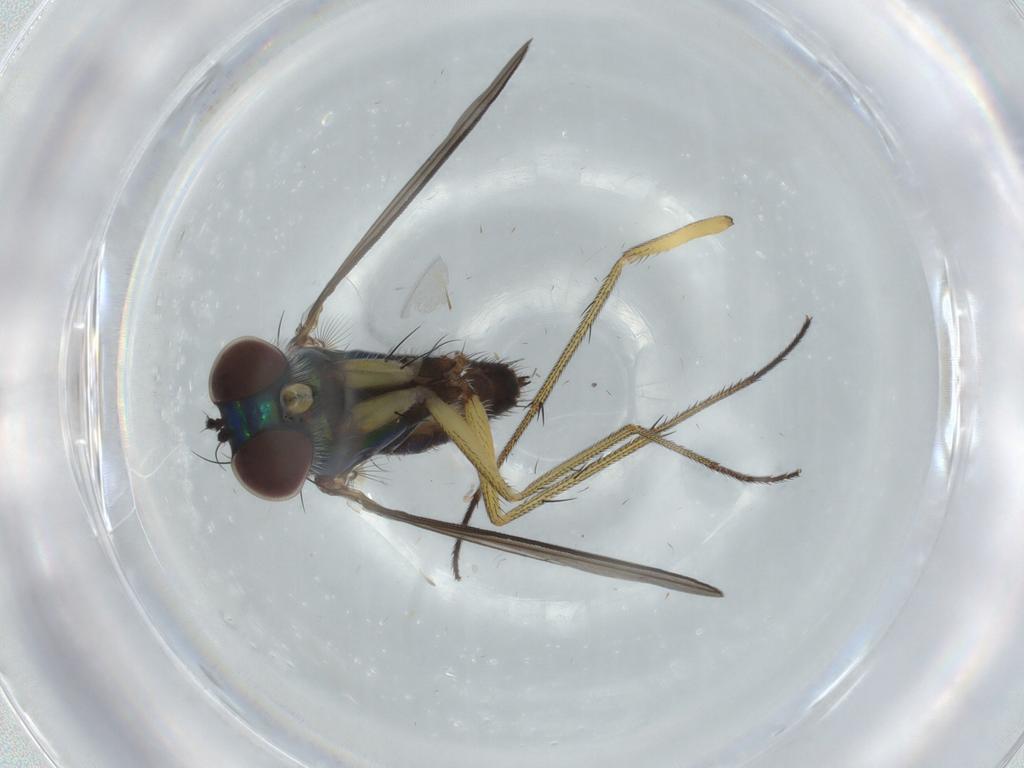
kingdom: Animalia
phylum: Arthropoda
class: Insecta
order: Diptera
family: Dolichopodidae
